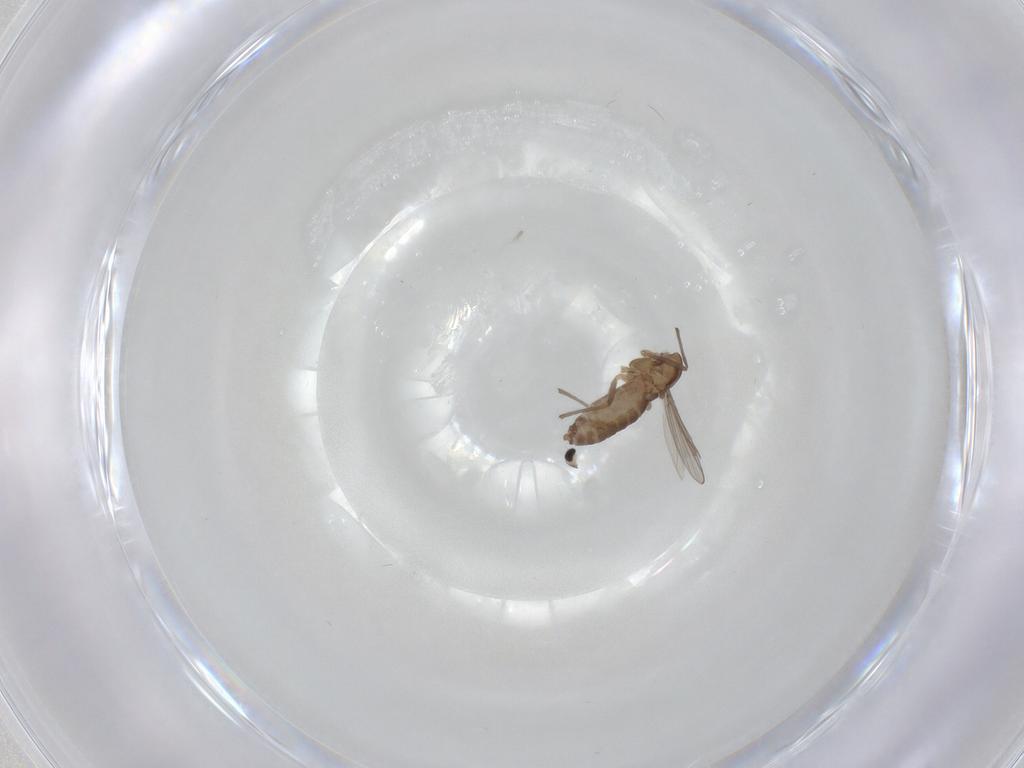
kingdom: Animalia
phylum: Arthropoda
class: Insecta
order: Diptera
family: Chironomidae
